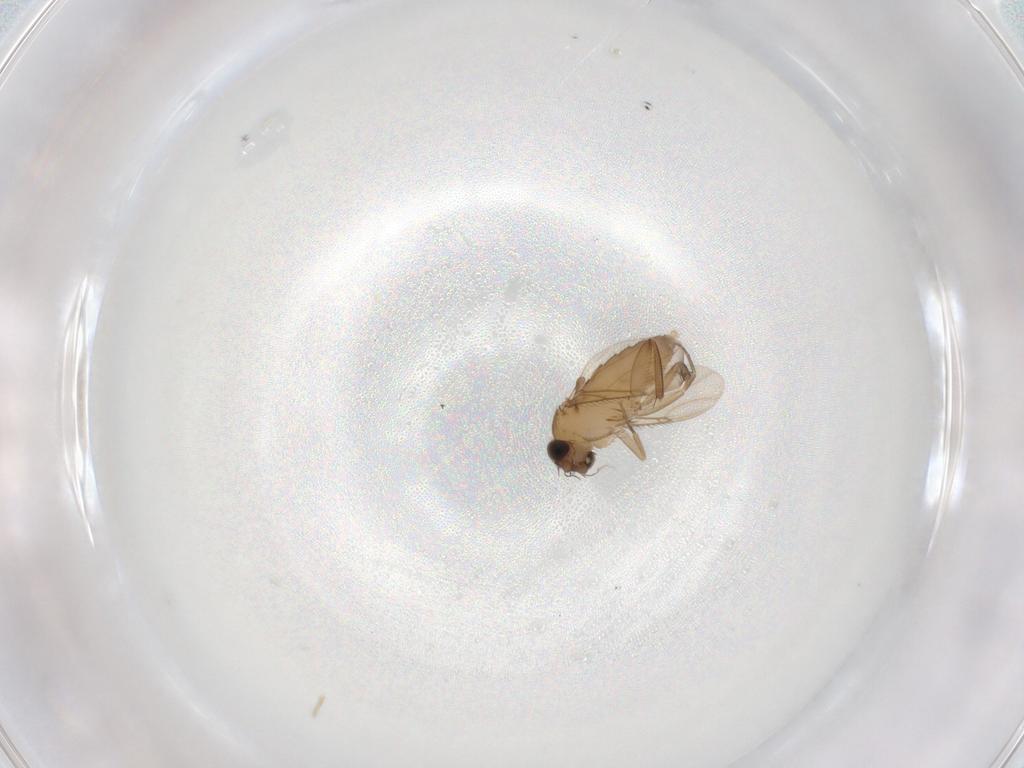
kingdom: Animalia
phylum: Arthropoda
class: Insecta
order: Diptera
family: Phoridae
